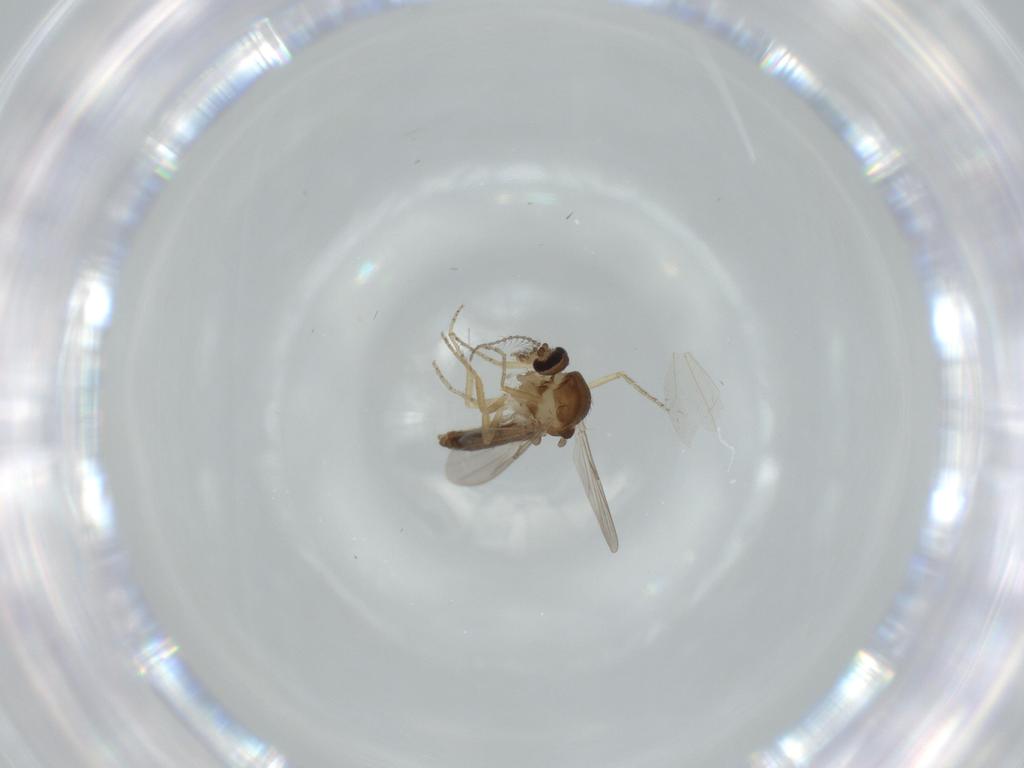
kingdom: Animalia
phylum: Arthropoda
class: Insecta
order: Diptera
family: Ceratopogonidae
